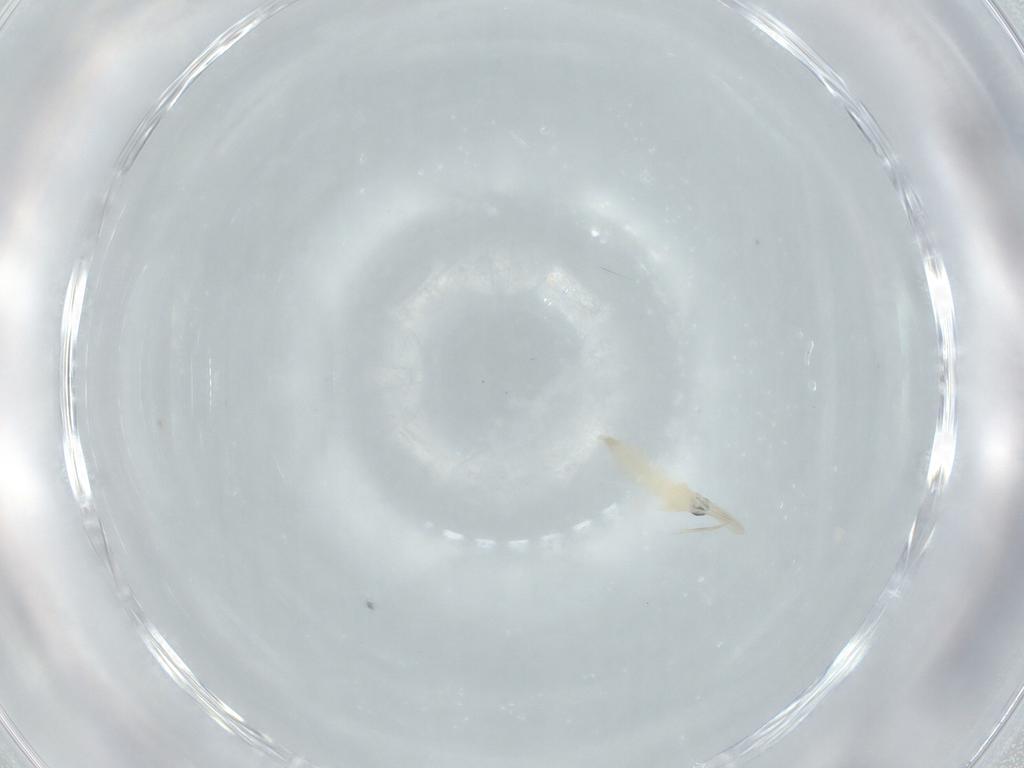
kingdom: Animalia
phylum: Arthropoda
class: Insecta
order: Diptera
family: Cecidomyiidae
